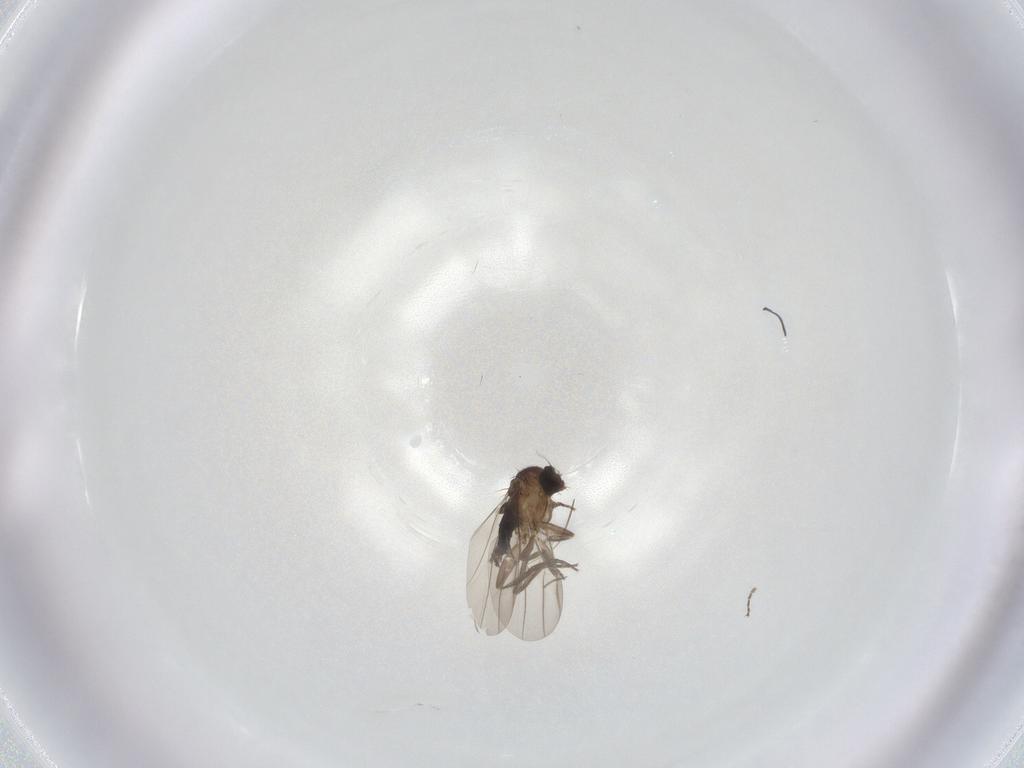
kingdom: Animalia
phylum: Arthropoda
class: Insecta
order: Diptera
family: Phoridae
